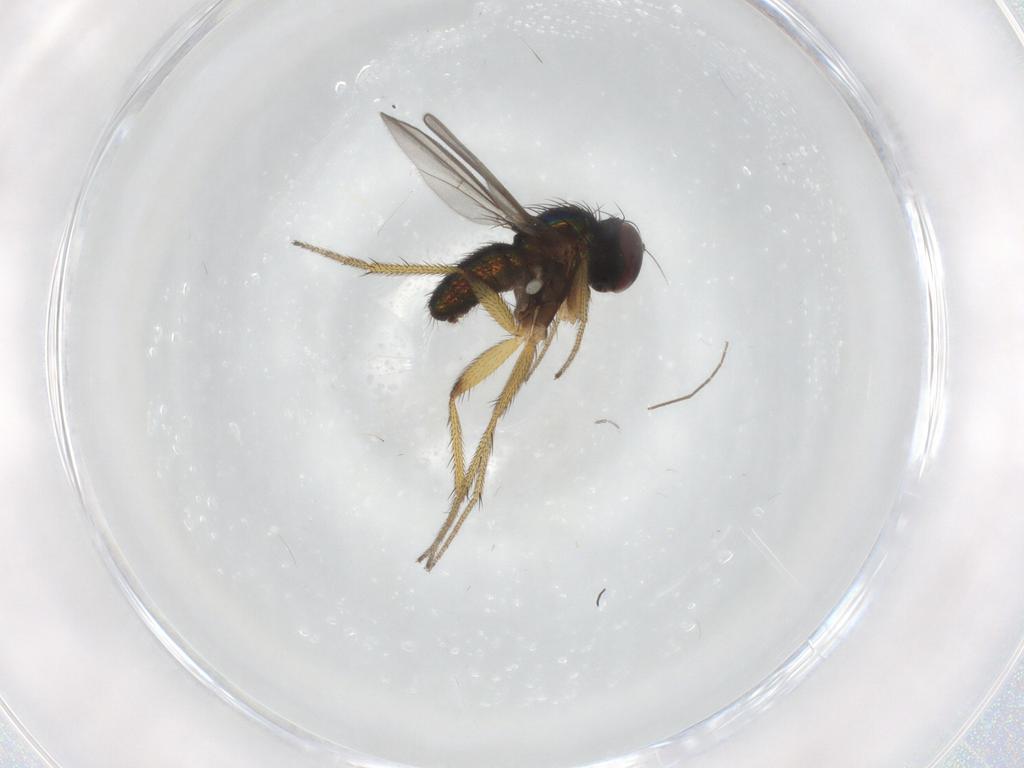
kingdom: Animalia
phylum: Arthropoda
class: Insecta
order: Diptera
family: Chironomidae
